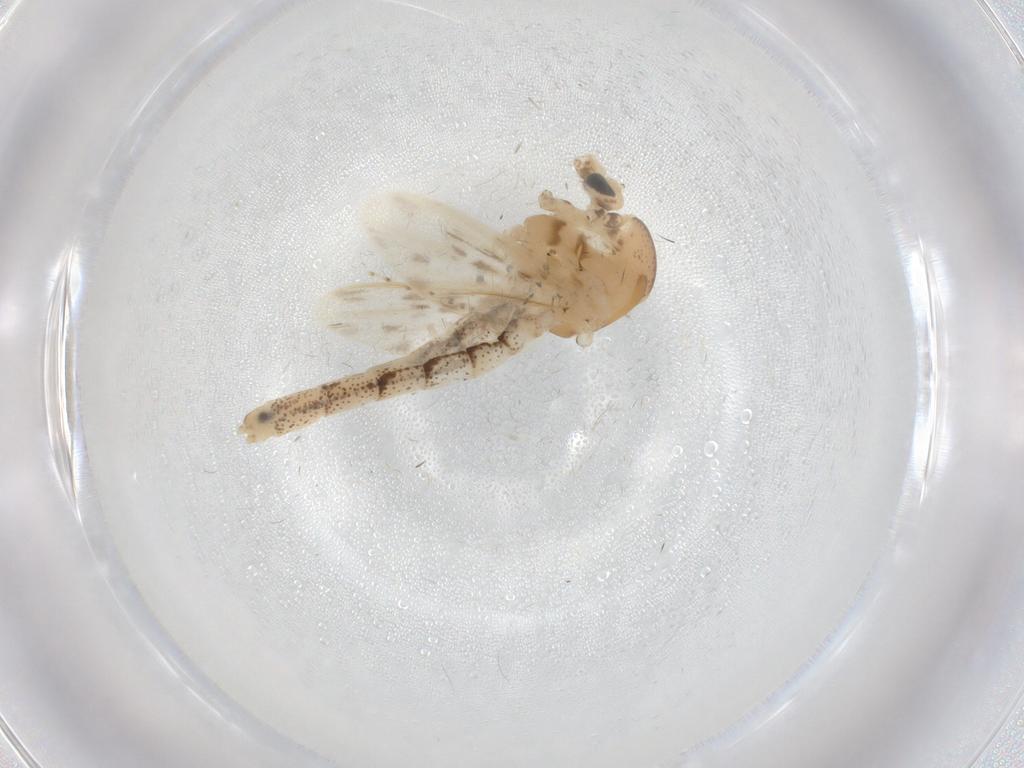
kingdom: Animalia
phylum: Arthropoda
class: Insecta
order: Diptera
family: Chaoboridae
